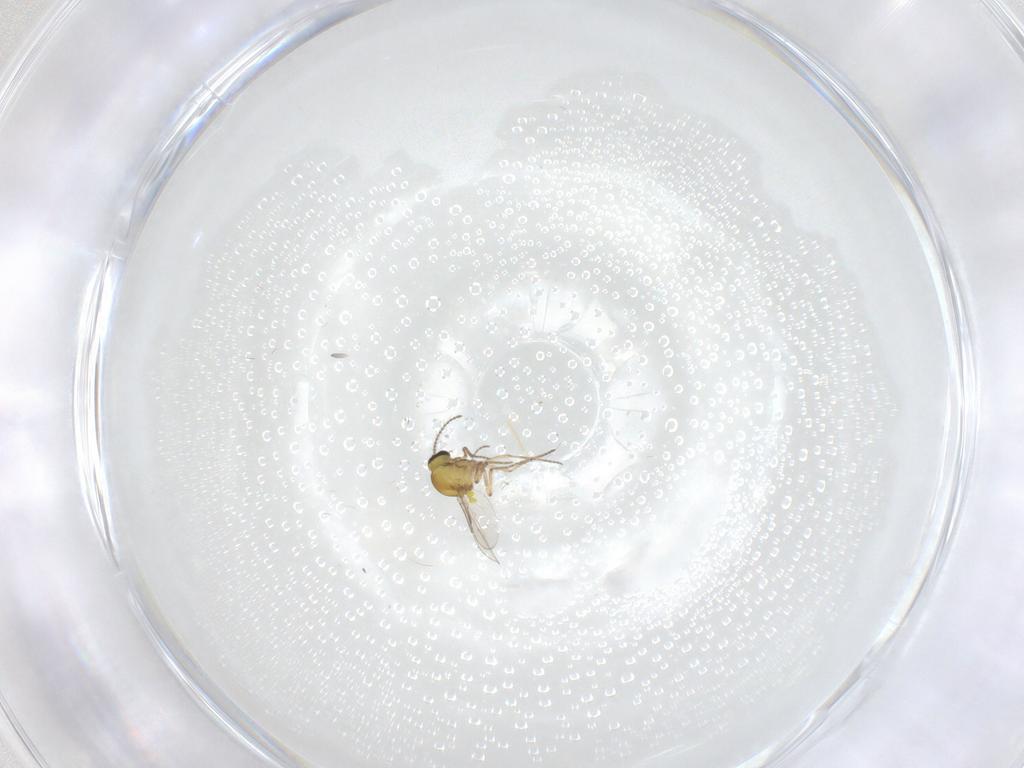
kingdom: Animalia
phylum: Arthropoda
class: Insecta
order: Diptera
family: Ceratopogonidae
